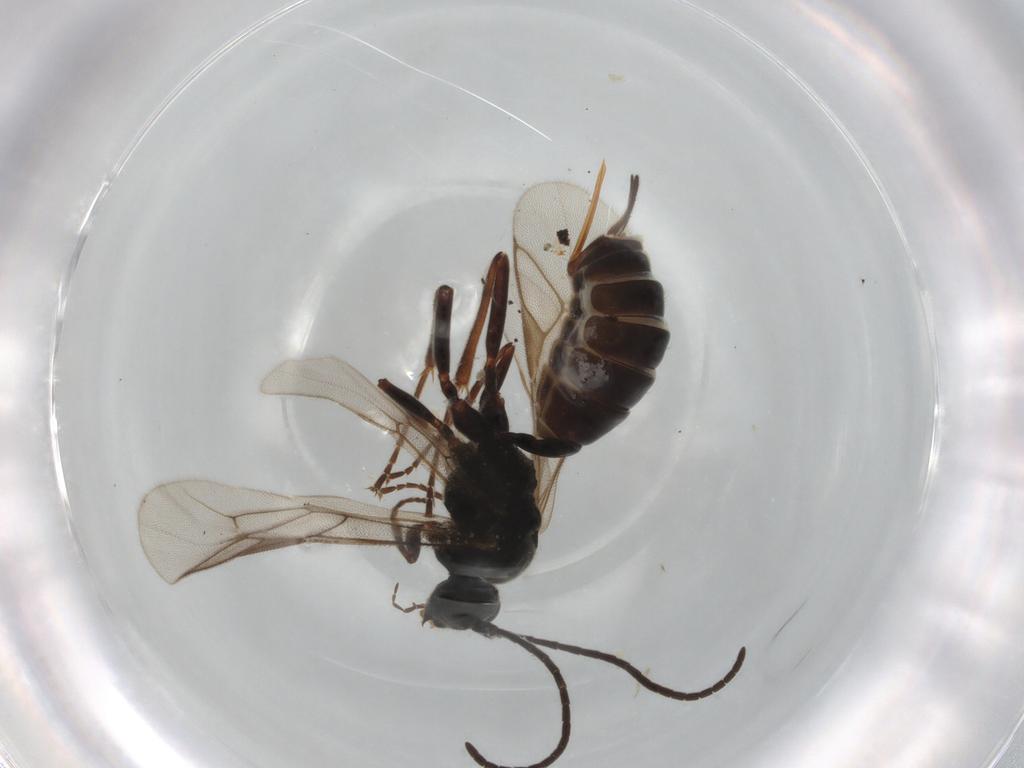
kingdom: Animalia
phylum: Arthropoda
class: Insecta
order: Hymenoptera
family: Ichneumonidae
